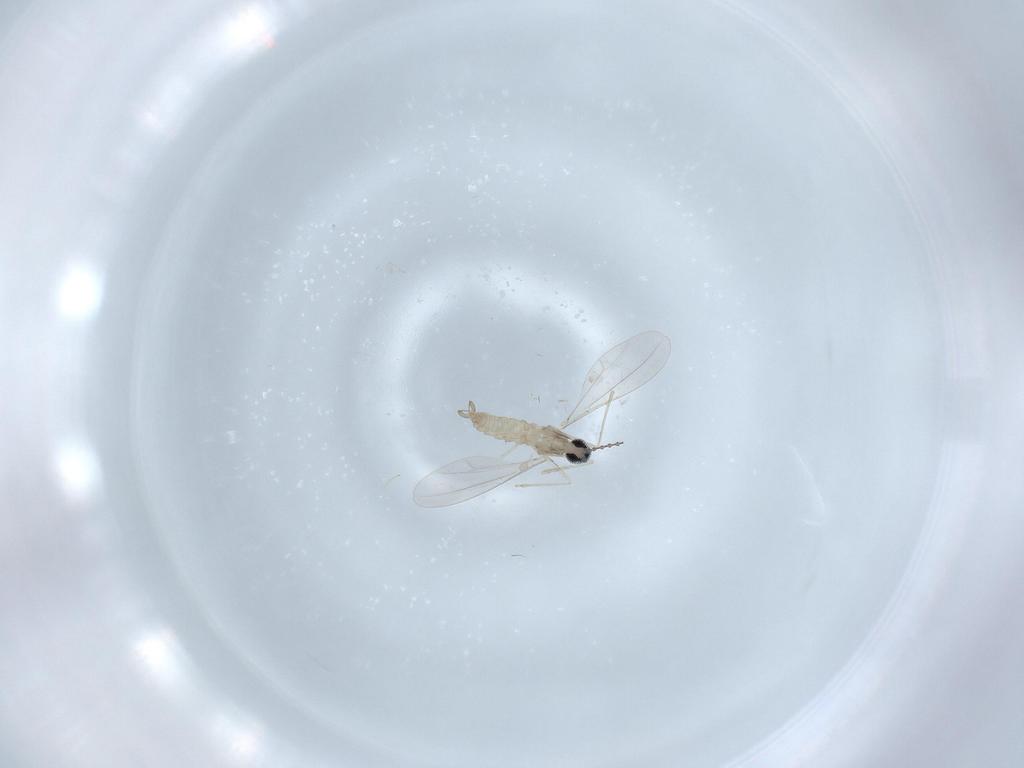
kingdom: Animalia
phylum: Arthropoda
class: Insecta
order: Diptera
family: Cecidomyiidae
